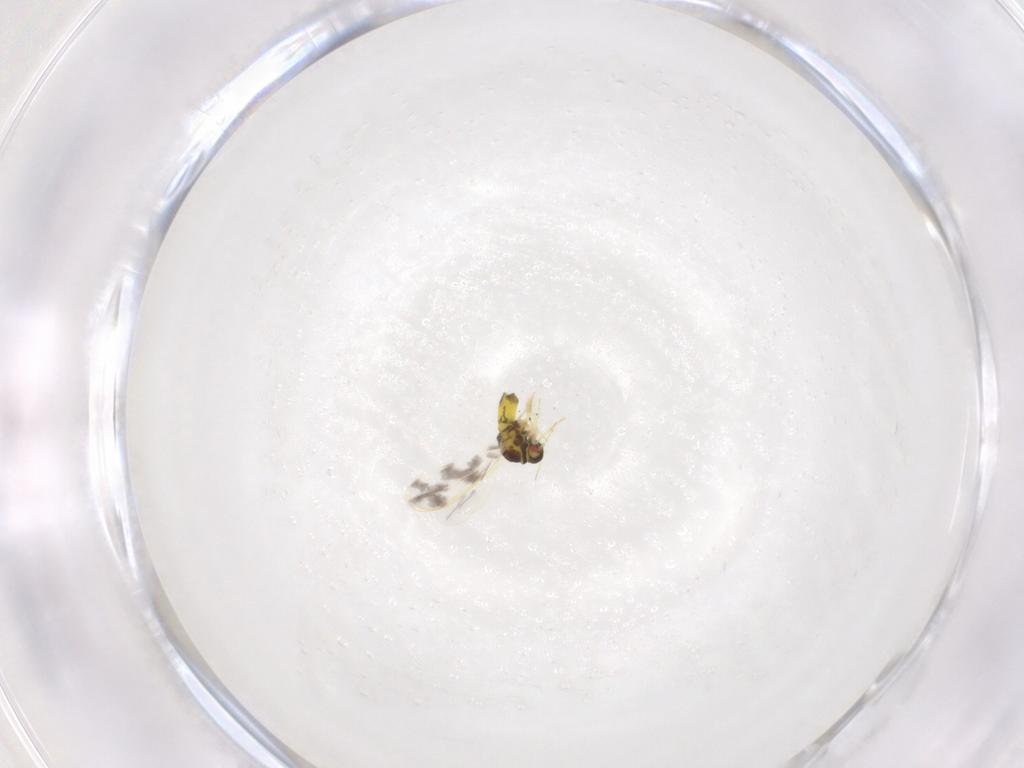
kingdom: Animalia
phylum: Arthropoda
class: Insecta
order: Hemiptera
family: Aleyrodidae
